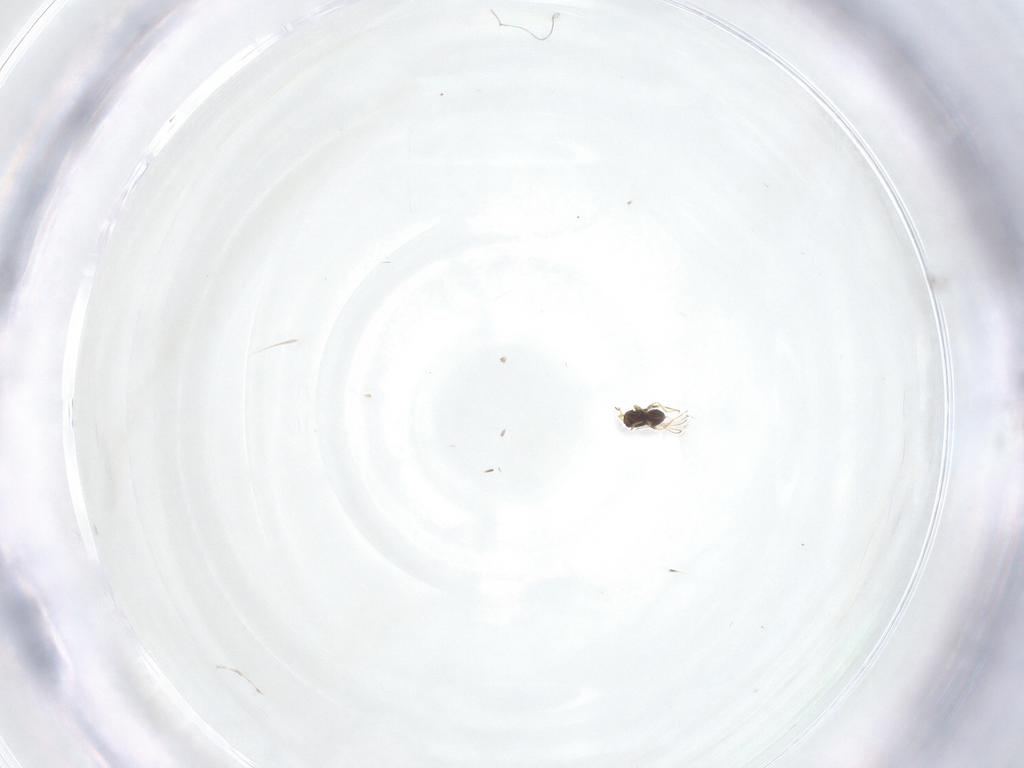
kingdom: Animalia
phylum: Arthropoda
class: Insecta
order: Hymenoptera
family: Mymaridae
